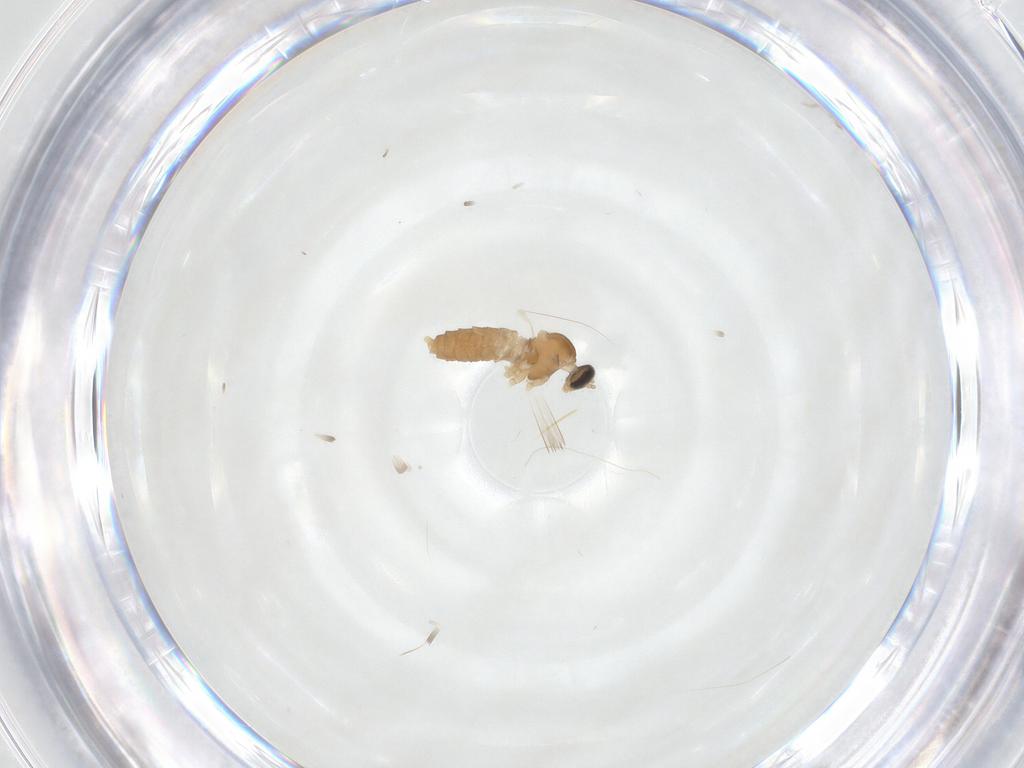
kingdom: Animalia
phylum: Arthropoda
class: Insecta
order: Diptera
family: Cecidomyiidae
